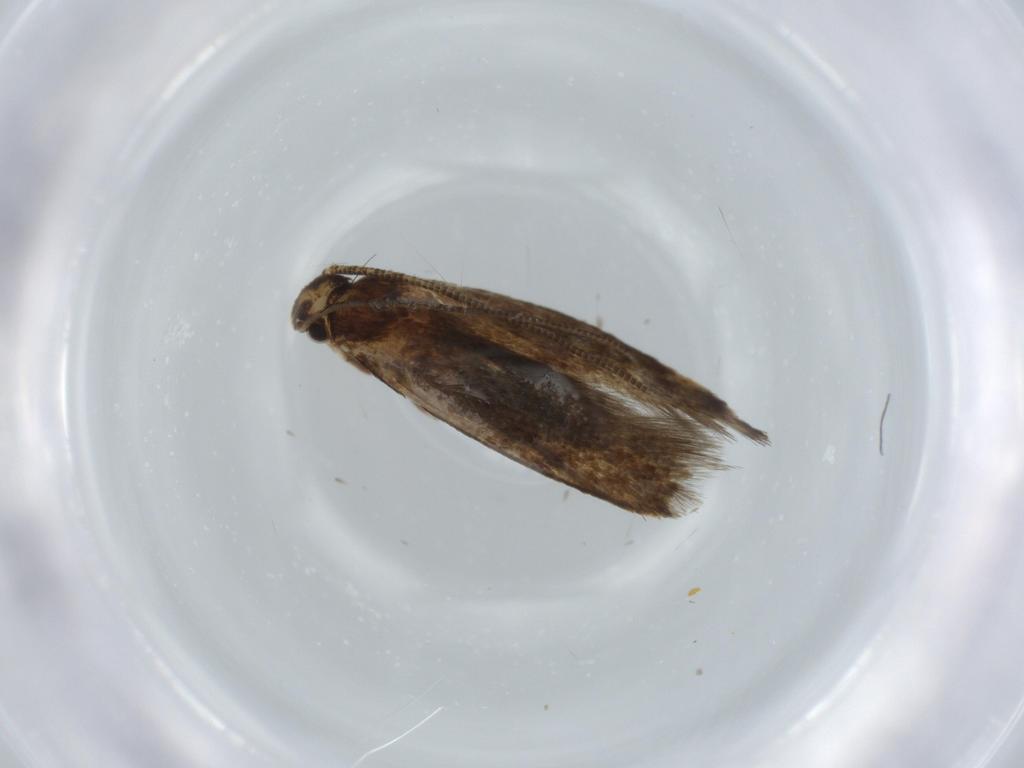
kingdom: Animalia
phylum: Arthropoda
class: Insecta
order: Lepidoptera
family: Tineidae
